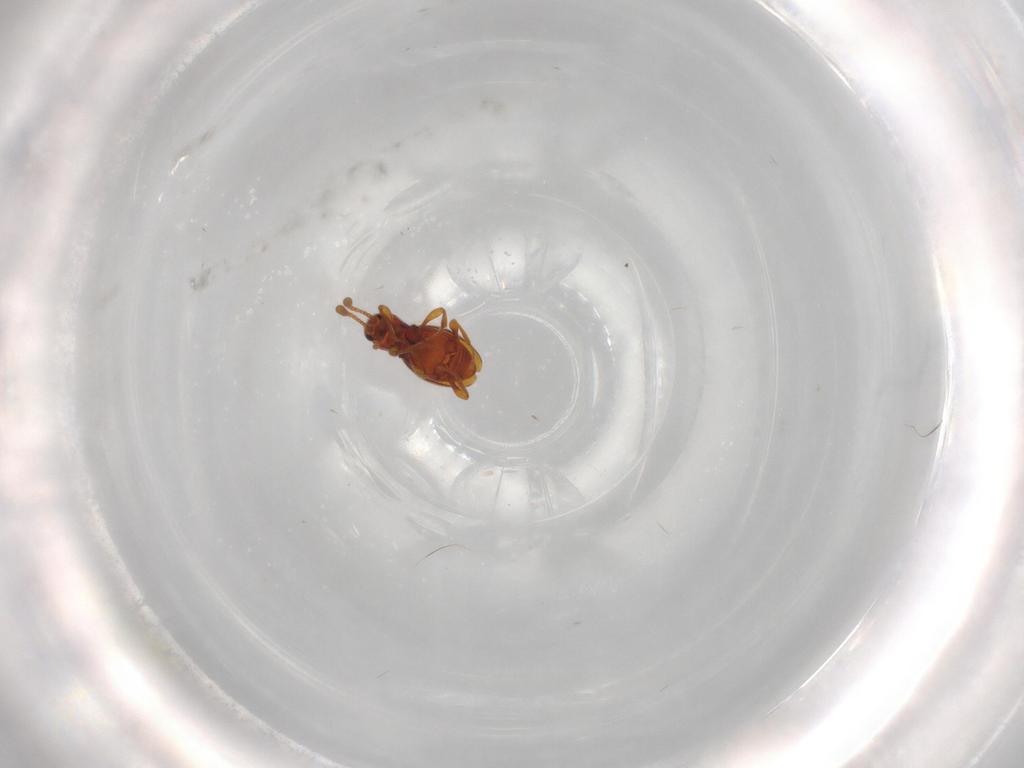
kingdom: Animalia
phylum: Arthropoda
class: Insecta
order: Coleoptera
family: Staphylinidae
